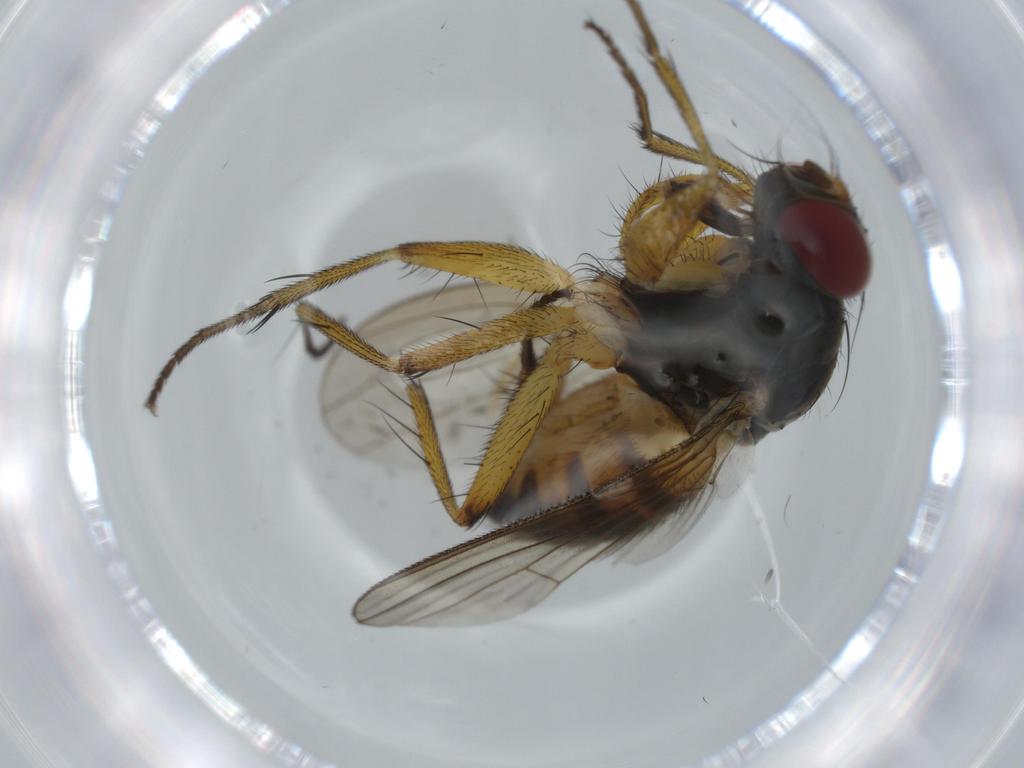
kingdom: Animalia
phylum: Arthropoda
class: Insecta
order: Diptera
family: Muscidae
